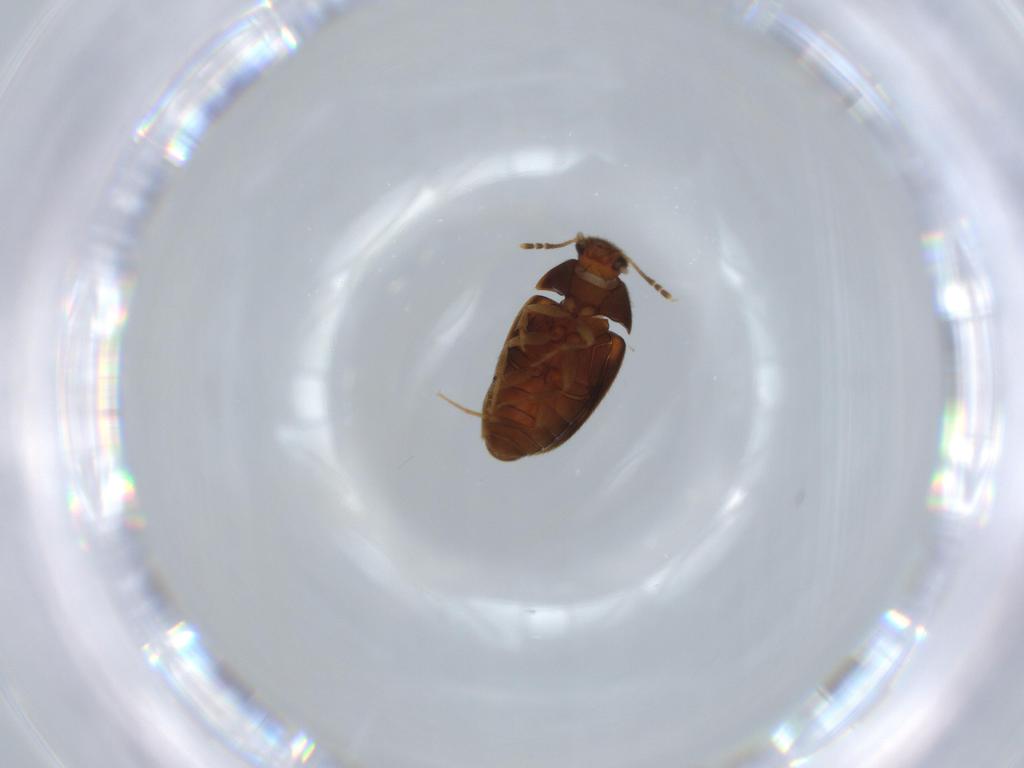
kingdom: Animalia
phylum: Arthropoda
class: Insecta
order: Coleoptera
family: Mycetophagidae
